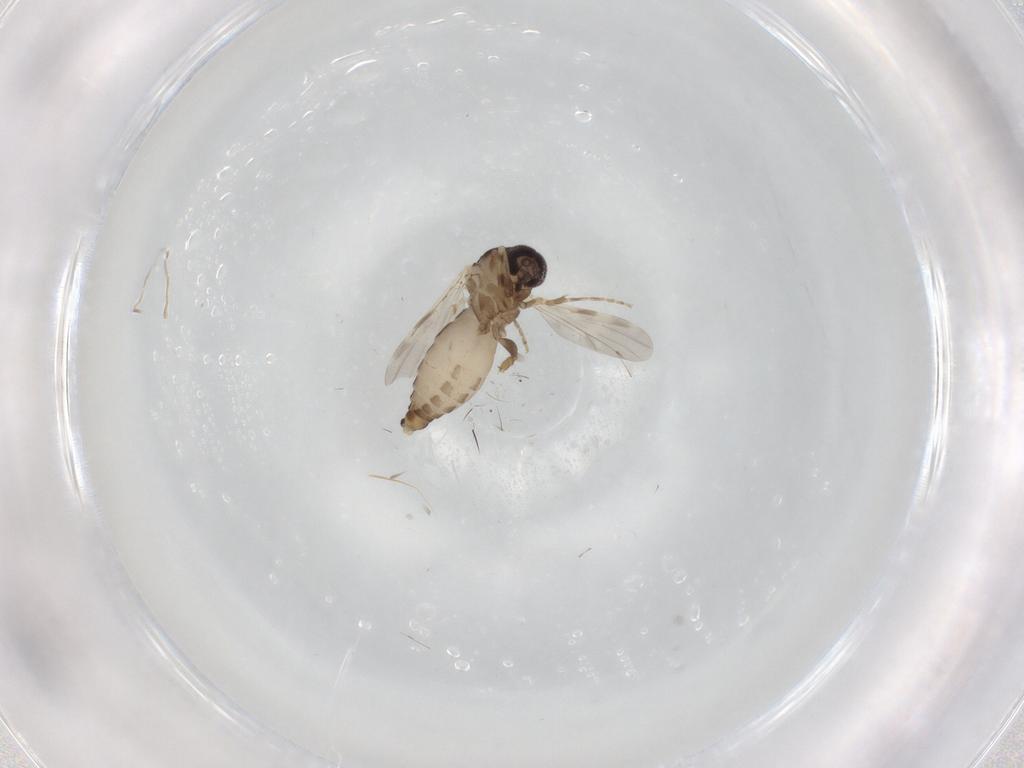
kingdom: Animalia
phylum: Arthropoda
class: Insecta
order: Diptera
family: Ceratopogonidae
